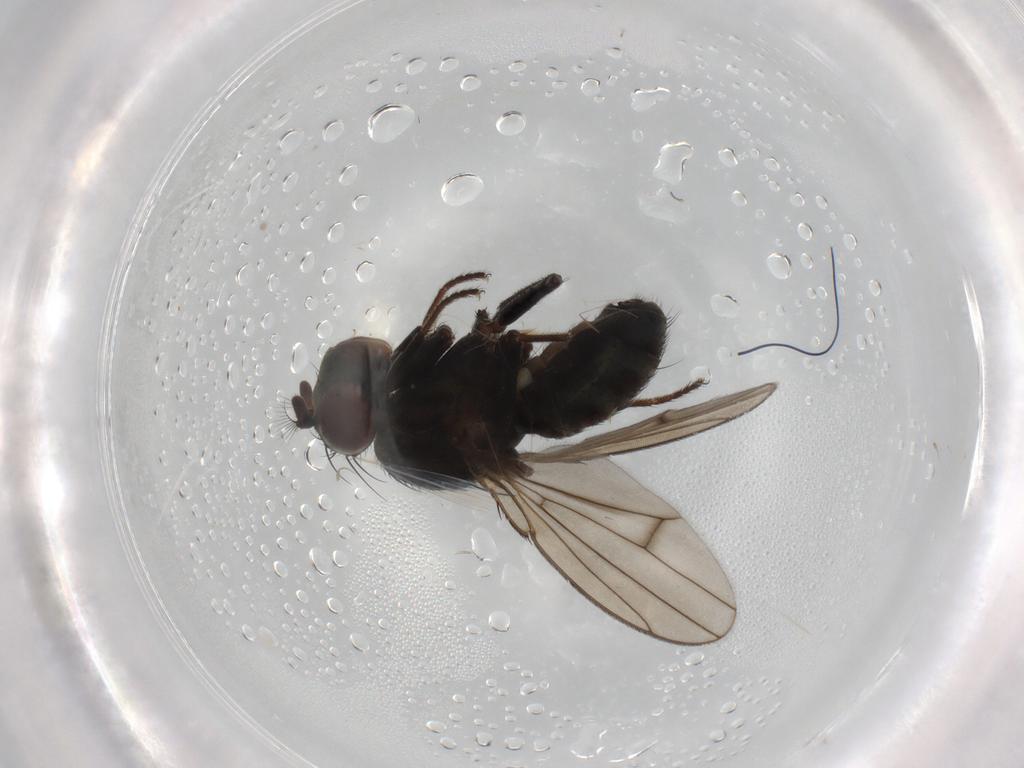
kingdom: Animalia
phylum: Arthropoda
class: Insecta
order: Diptera
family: Ephydridae
